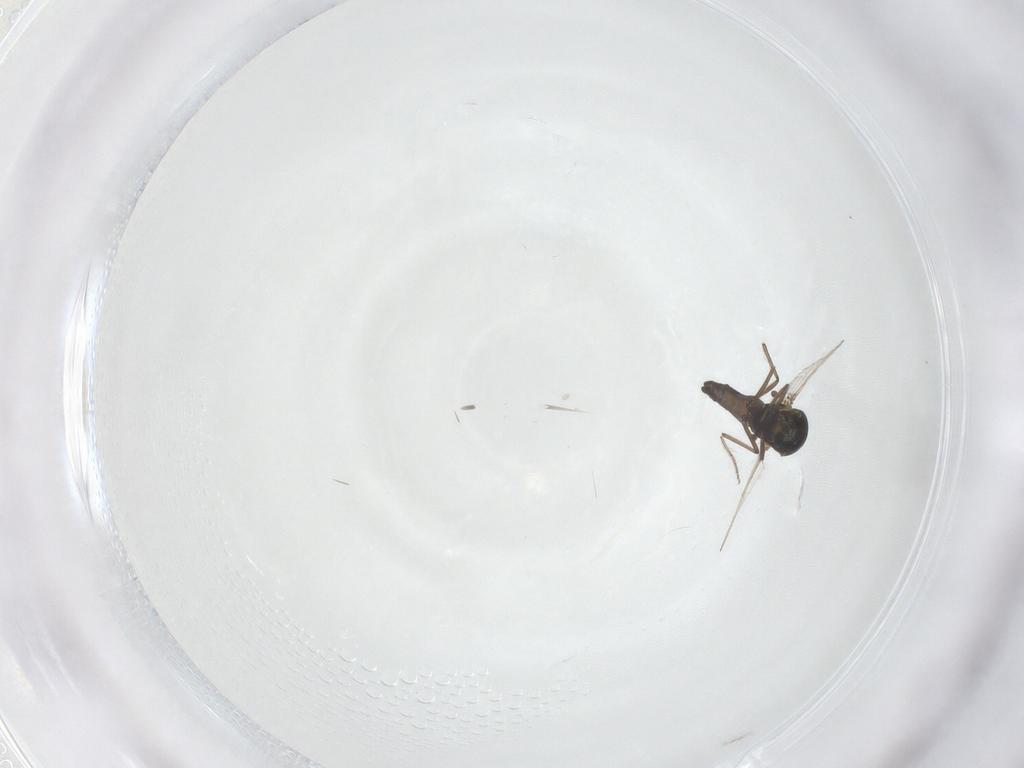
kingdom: Animalia
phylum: Arthropoda
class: Insecta
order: Diptera
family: Ceratopogonidae
